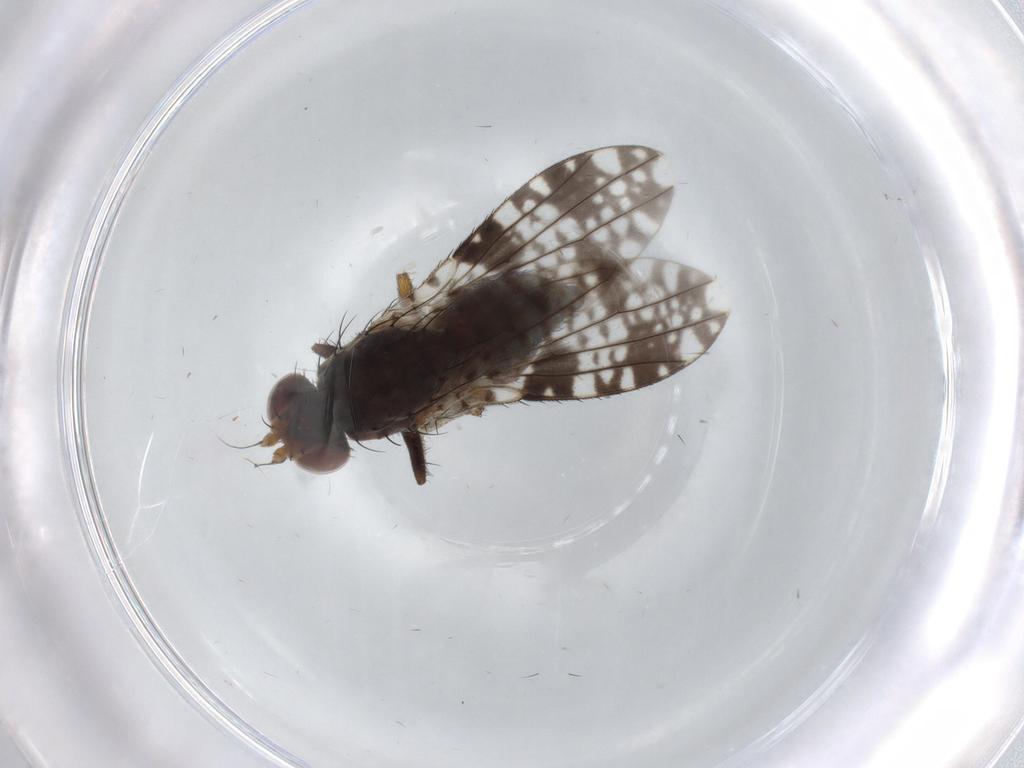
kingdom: Animalia
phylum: Arthropoda
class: Insecta
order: Diptera
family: Tephritidae
